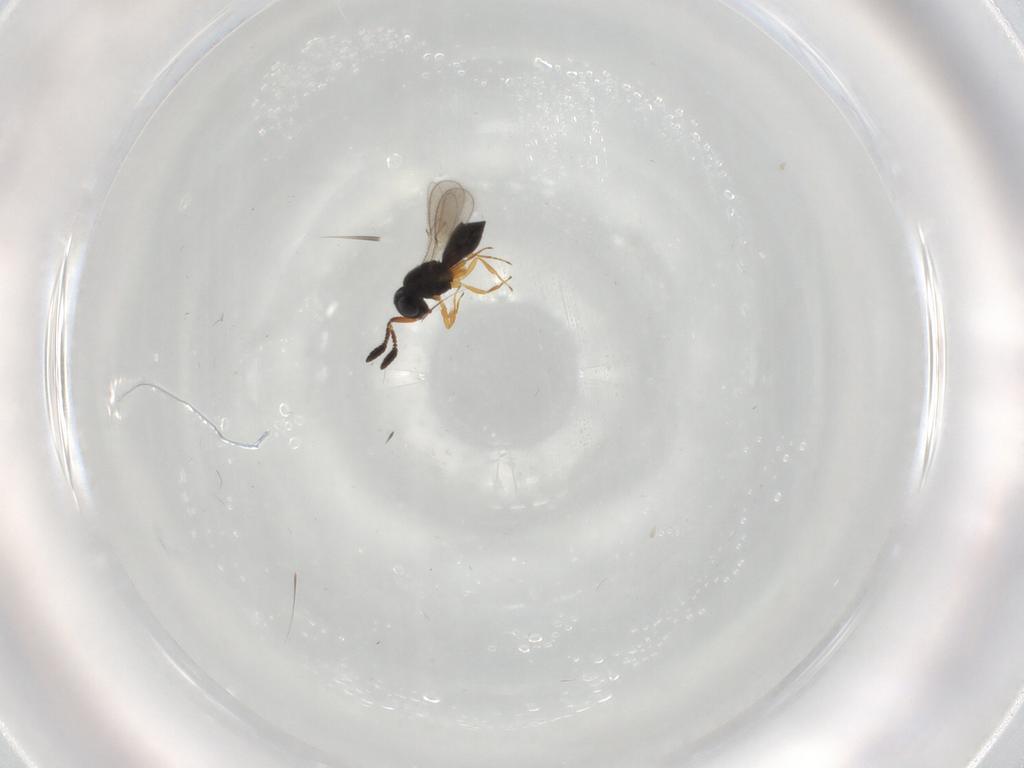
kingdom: Animalia
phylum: Arthropoda
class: Insecta
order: Hymenoptera
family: Scelionidae
